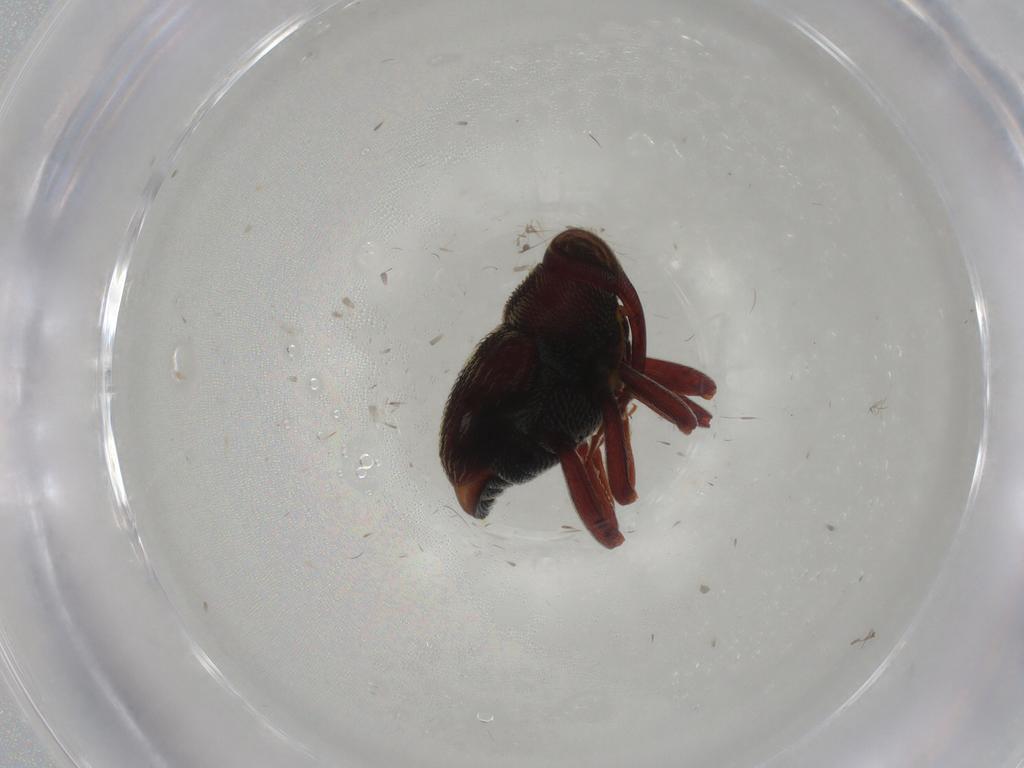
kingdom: Animalia
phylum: Arthropoda
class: Insecta
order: Coleoptera
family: Curculionidae
